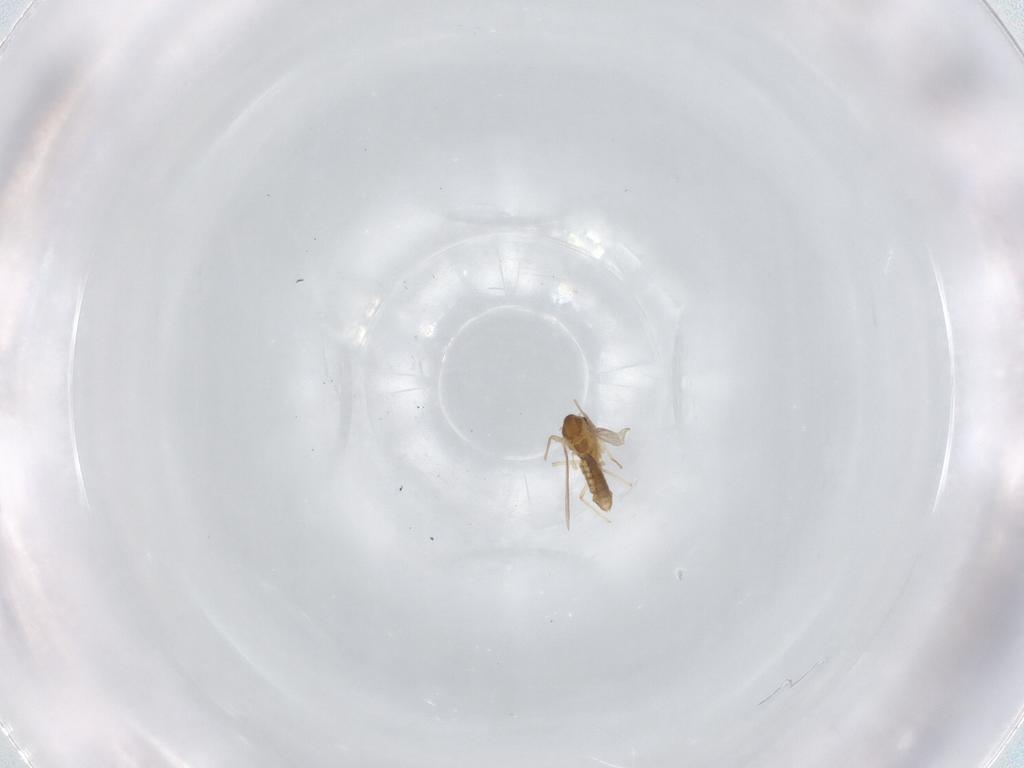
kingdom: Animalia
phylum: Arthropoda
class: Insecta
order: Diptera
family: Chironomidae
